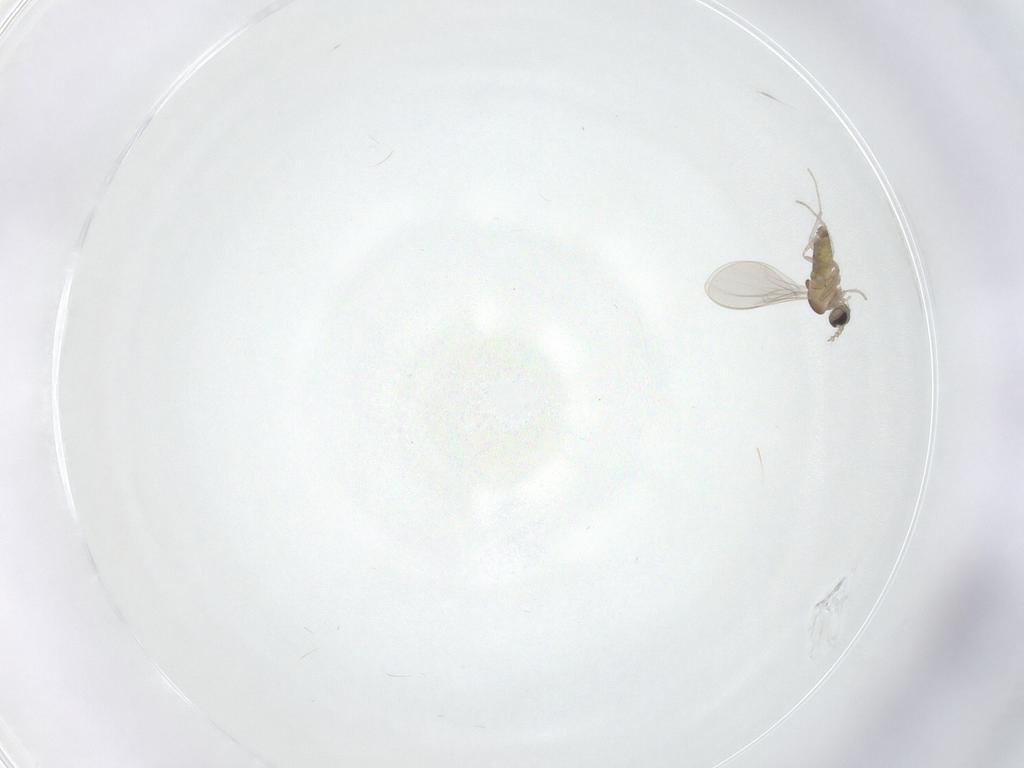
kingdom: Animalia
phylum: Arthropoda
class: Insecta
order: Diptera
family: Cecidomyiidae
